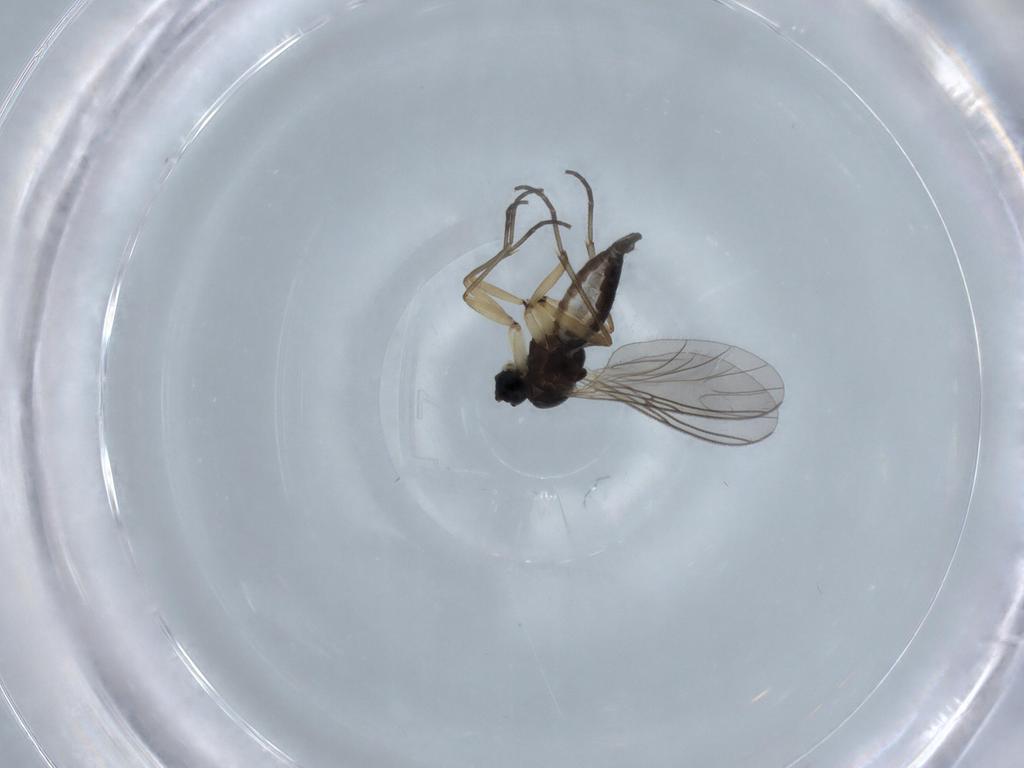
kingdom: Animalia
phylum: Arthropoda
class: Insecta
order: Diptera
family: Sciaridae
